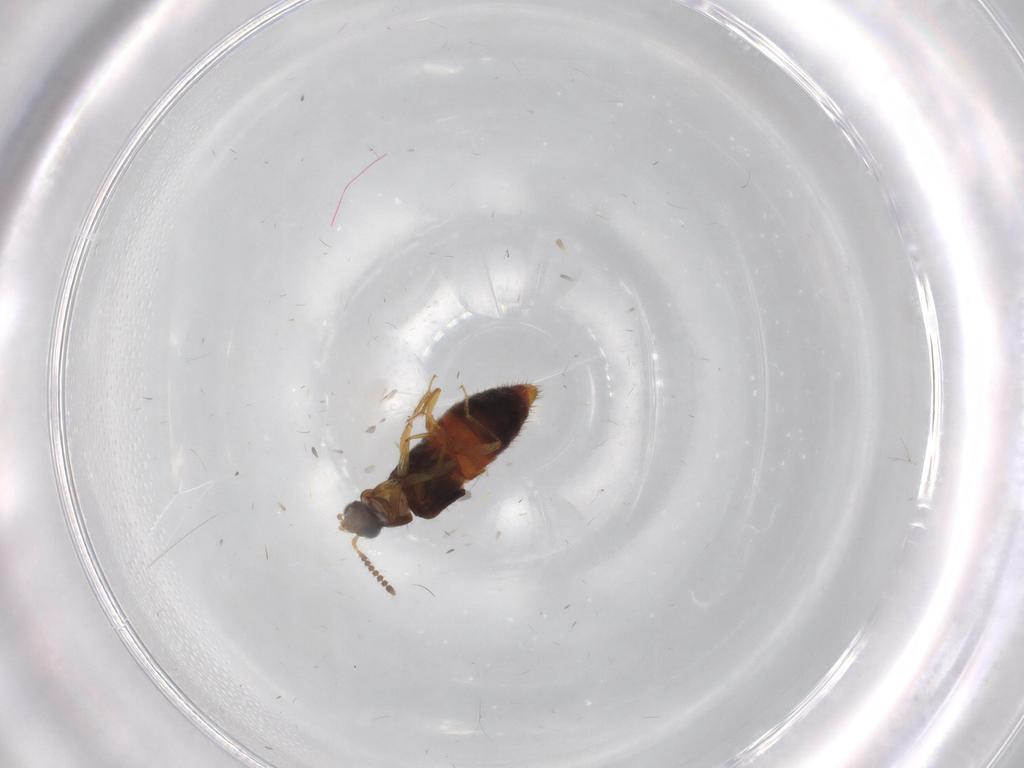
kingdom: Animalia
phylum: Arthropoda
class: Insecta
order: Coleoptera
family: Staphylinidae
